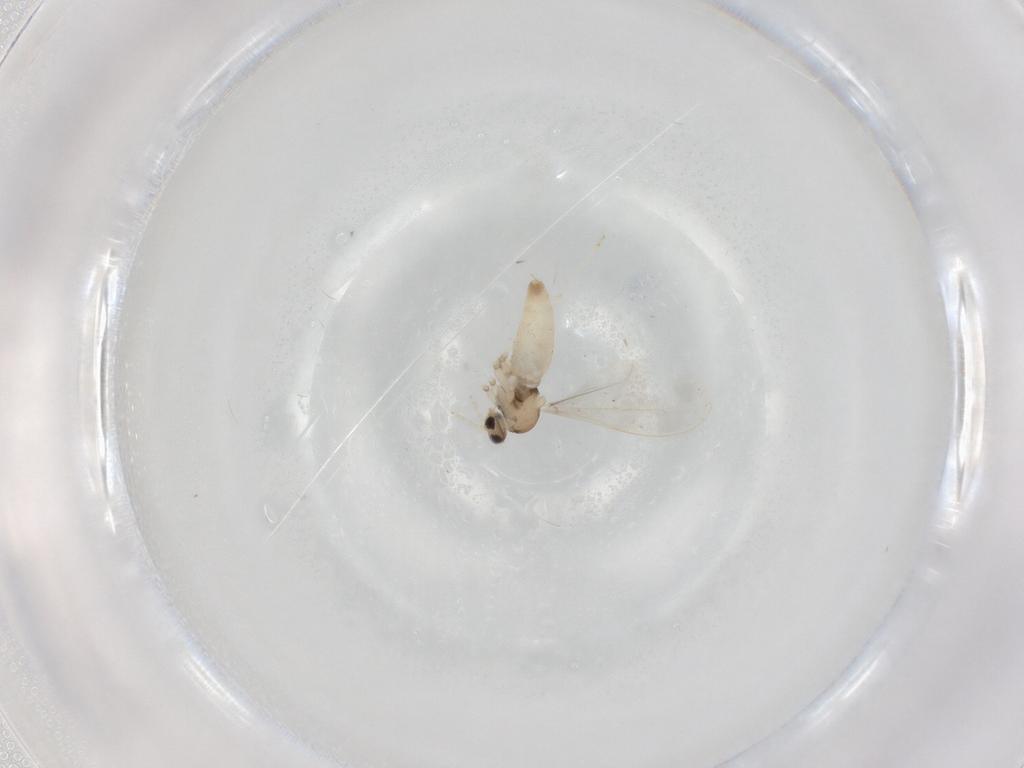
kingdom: Animalia
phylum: Arthropoda
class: Insecta
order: Diptera
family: Cecidomyiidae
